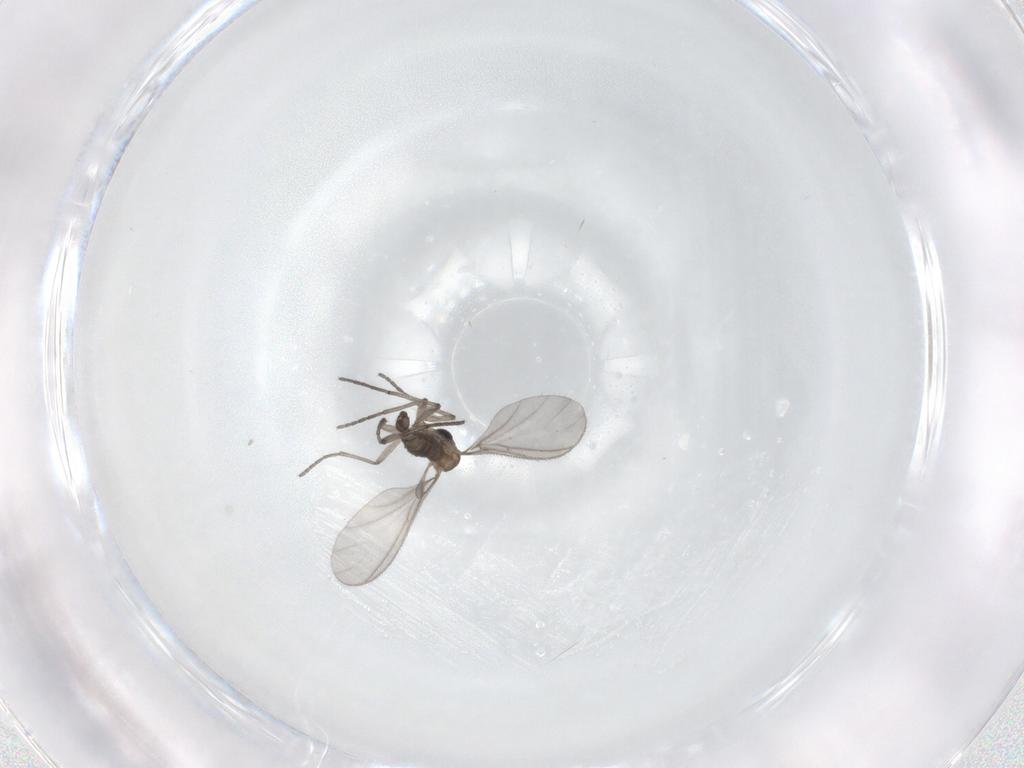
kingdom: Animalia
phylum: Arthropoda
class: Insecta
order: Diptera
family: Sciaridae
